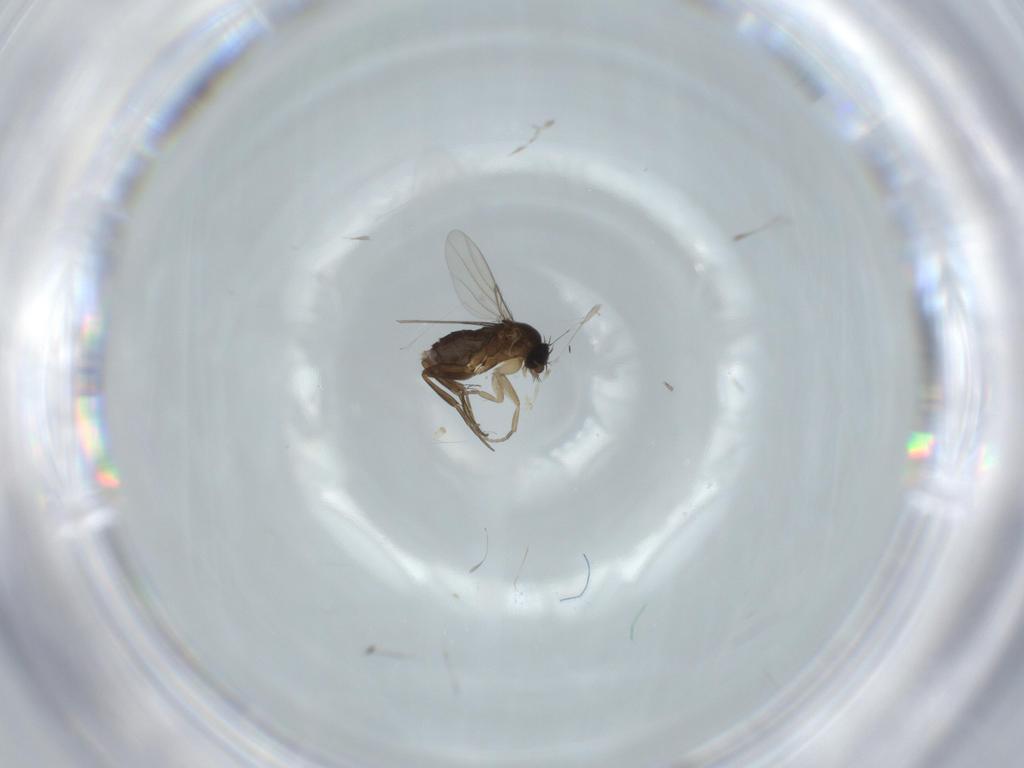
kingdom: Animalia
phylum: Arthropoda
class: Insecta
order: Diptera
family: Phoridae
